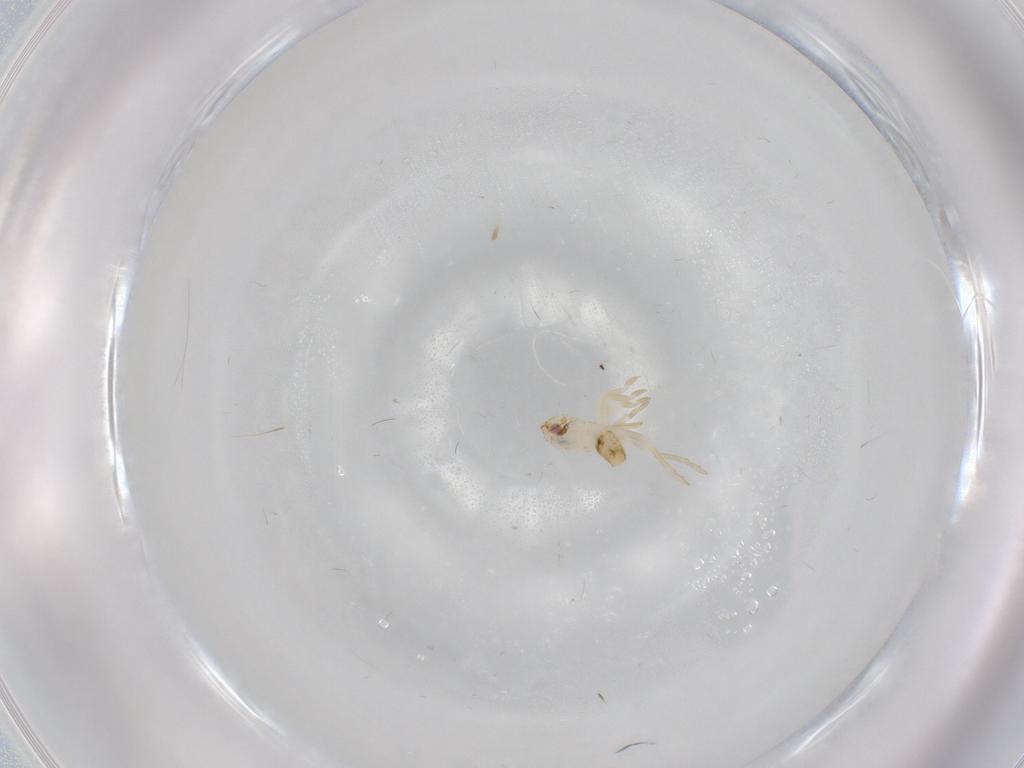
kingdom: Animalia
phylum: Arthropoda
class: Insecta
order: Hemiptera
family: Flatidae
